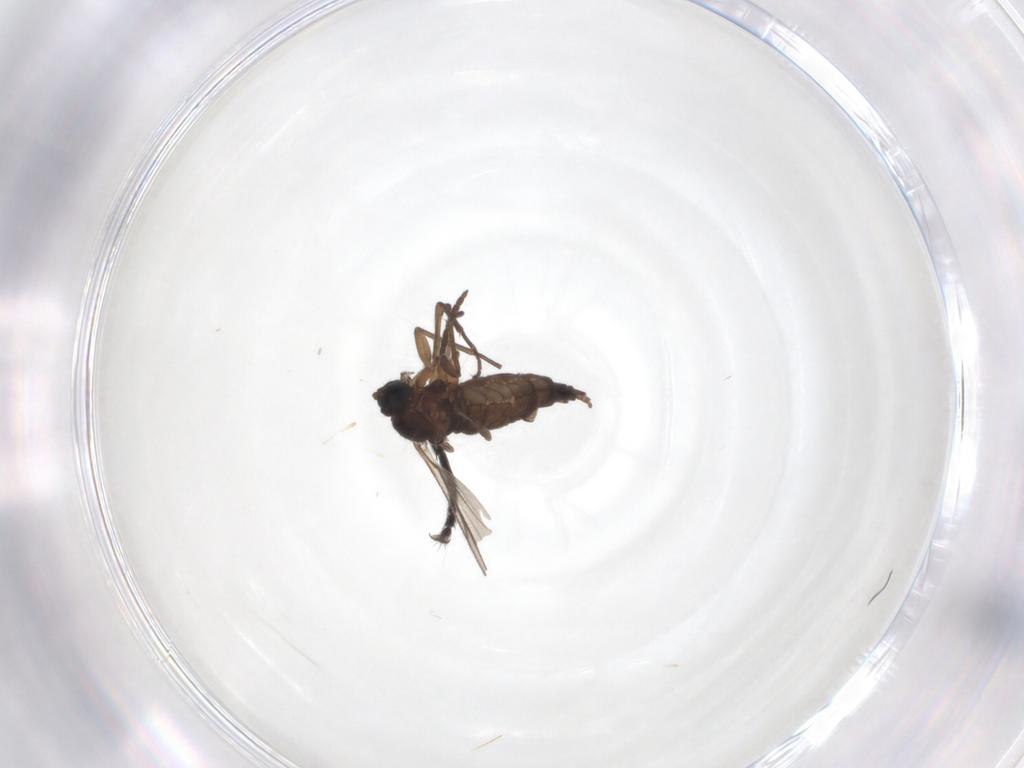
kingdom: Animalia
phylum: Arthropoda
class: Insecta
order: Diptera
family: Sciaridae
